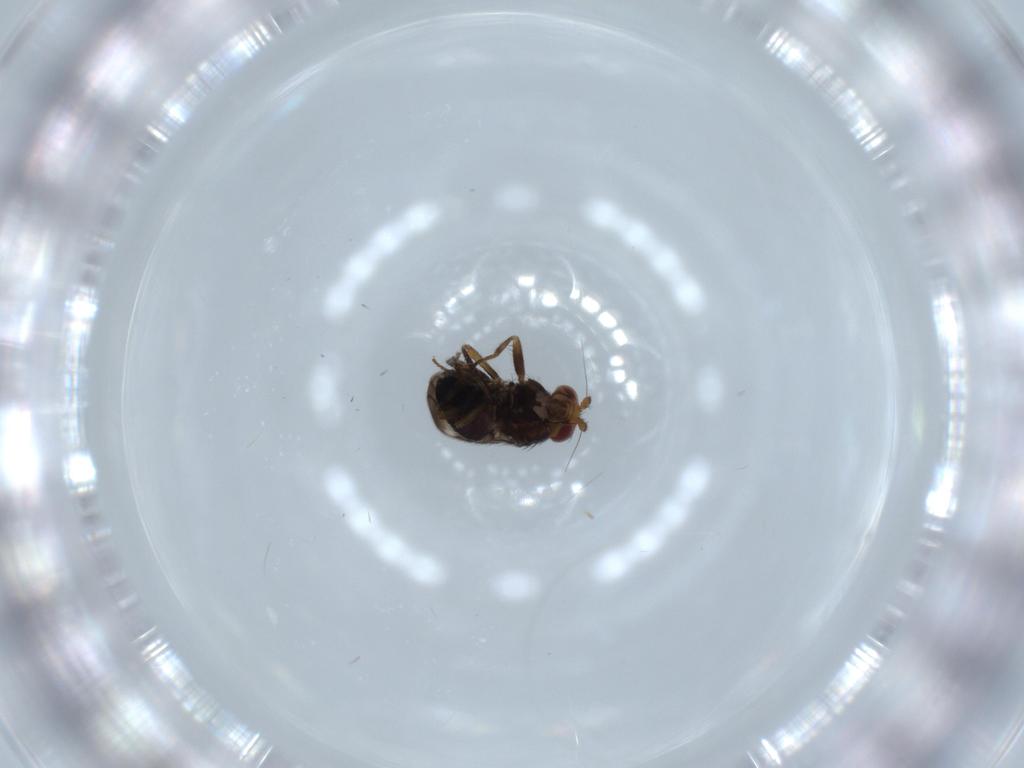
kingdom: Animalia
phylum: Arthropoda
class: Insecta
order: Diptera
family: Sphaeroceridae
